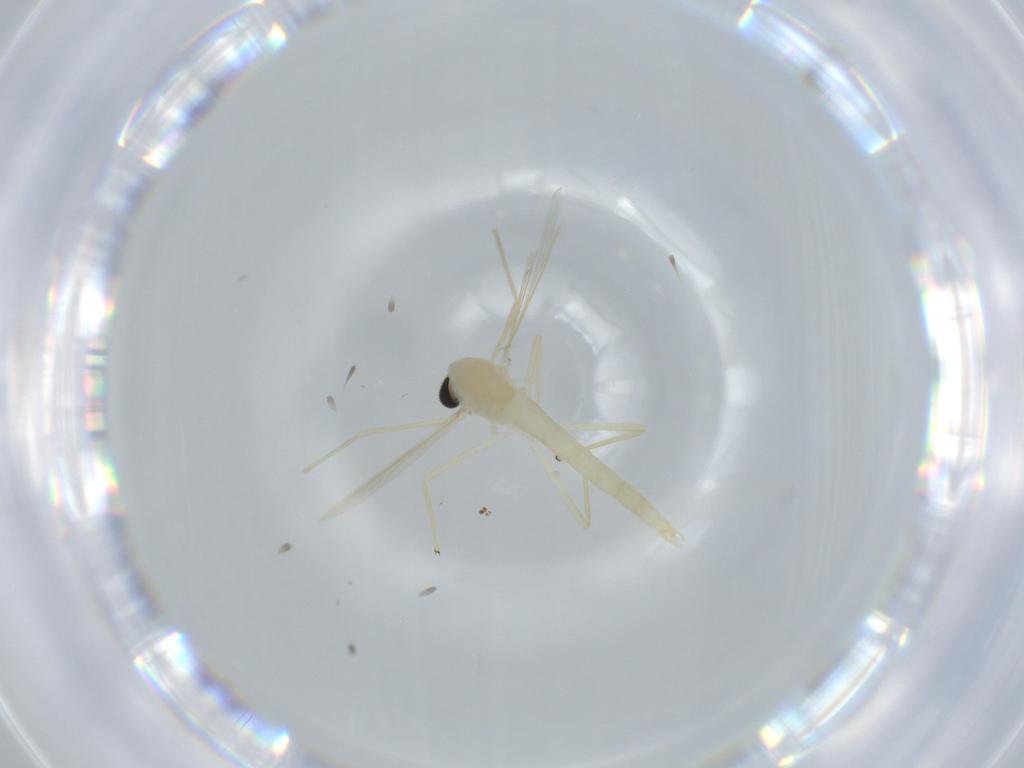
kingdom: Animalia
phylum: Arthropoda
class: Insecta
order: Diptera
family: Chironomidae
